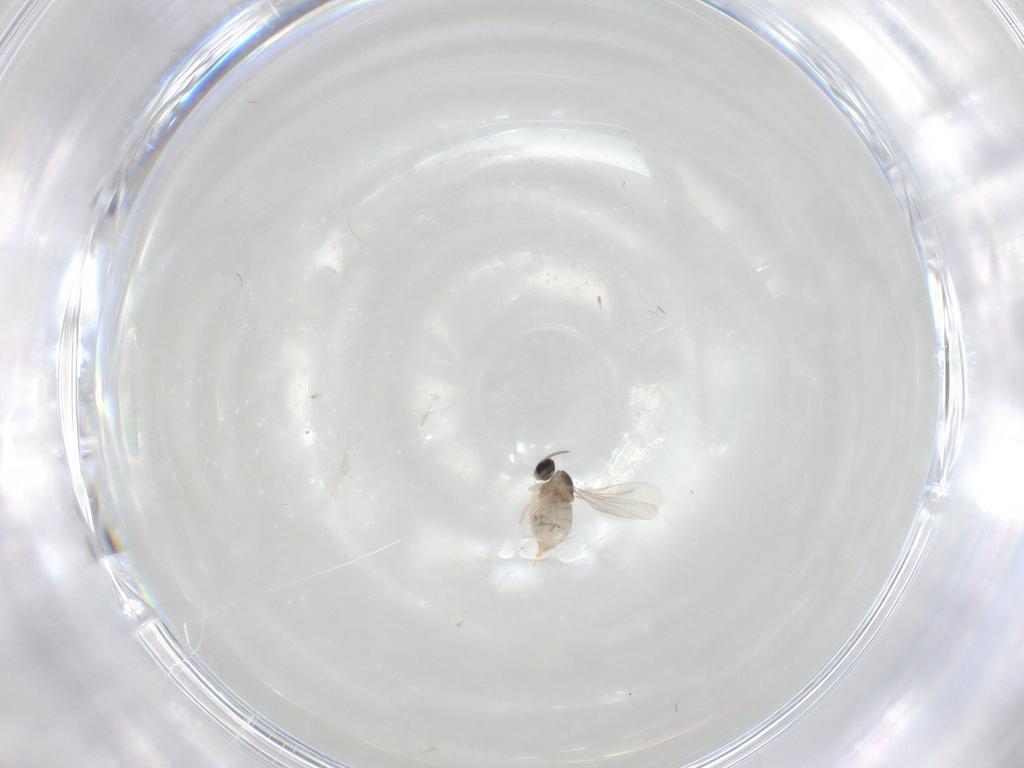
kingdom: Animalia
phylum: Arthropoda
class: Insecta
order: Diptera
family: Cecidomyiidae
